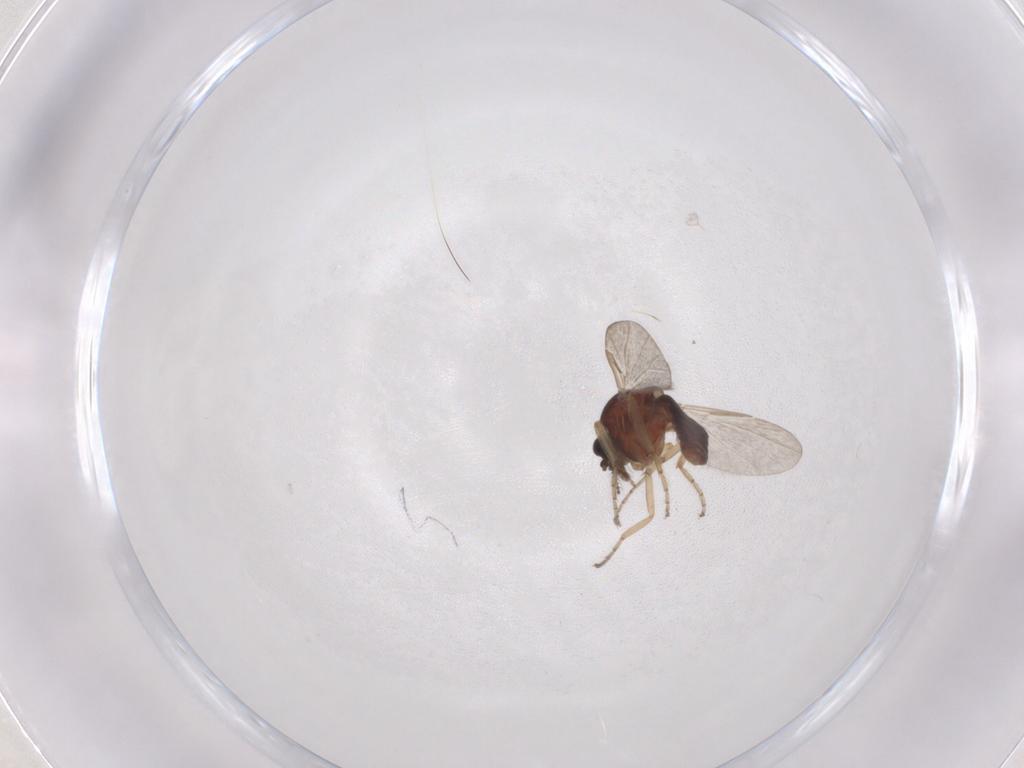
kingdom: Animalia
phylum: Arthropoda
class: Insecta
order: Diptera
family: Ceratopogonidae
